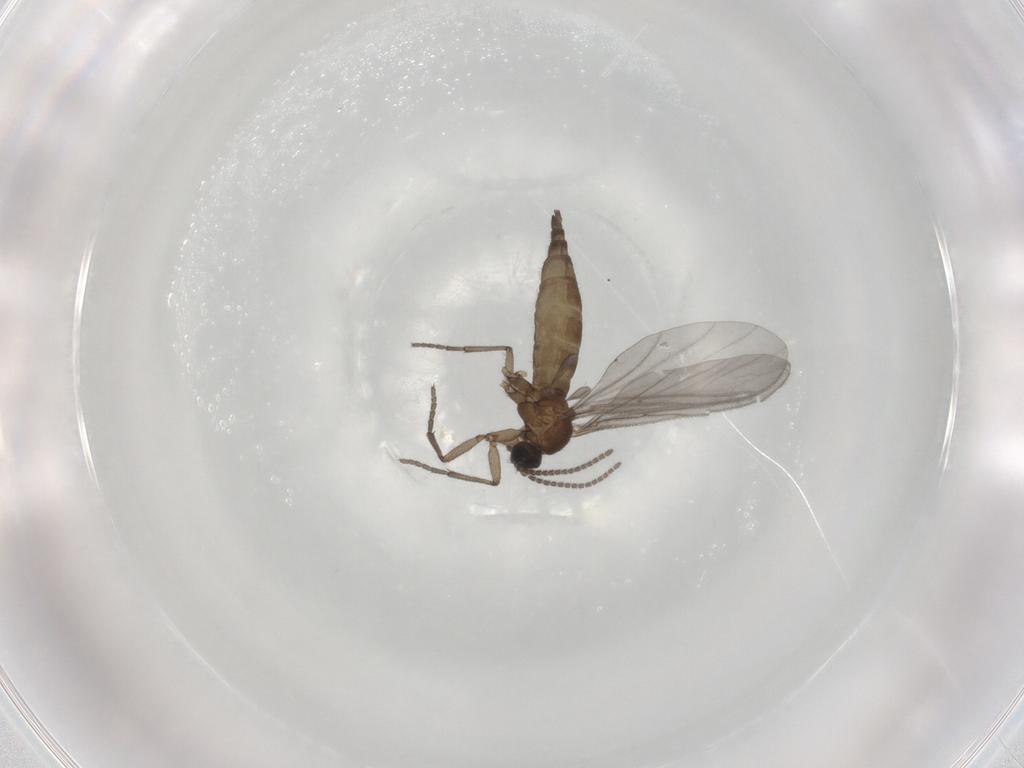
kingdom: Animalia
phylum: Arthropoda
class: Insecta
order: Diptera
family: Sciaridae
